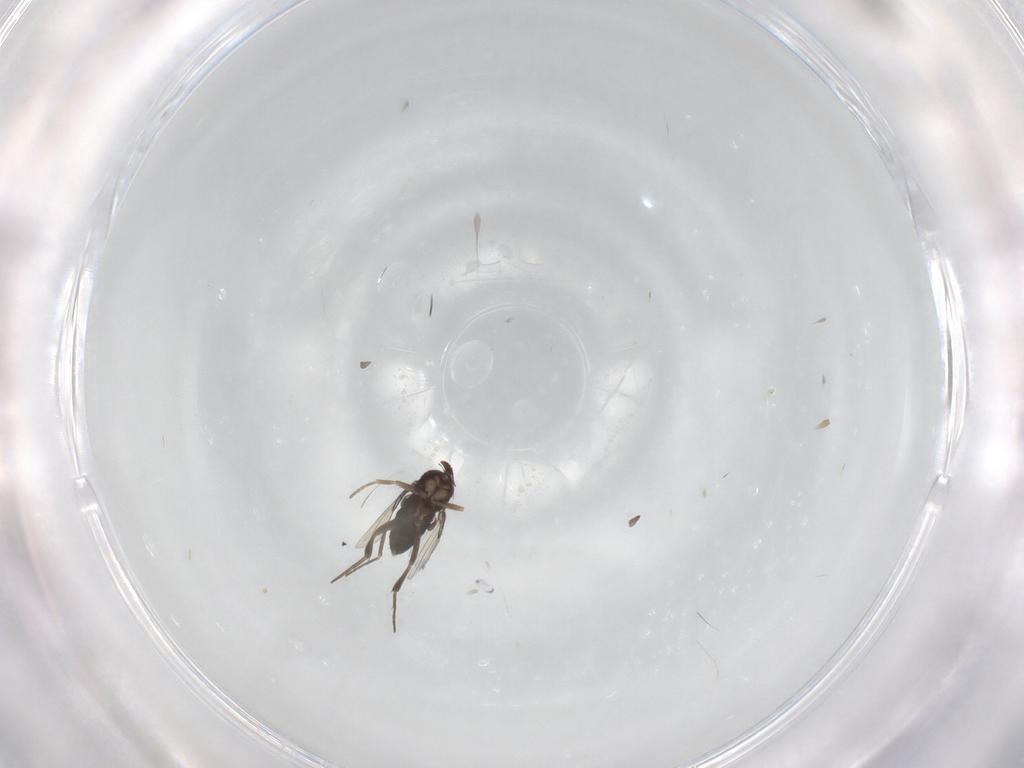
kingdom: Animalia
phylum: Arthropoda
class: Insecta
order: Diptera
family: Phoridae
